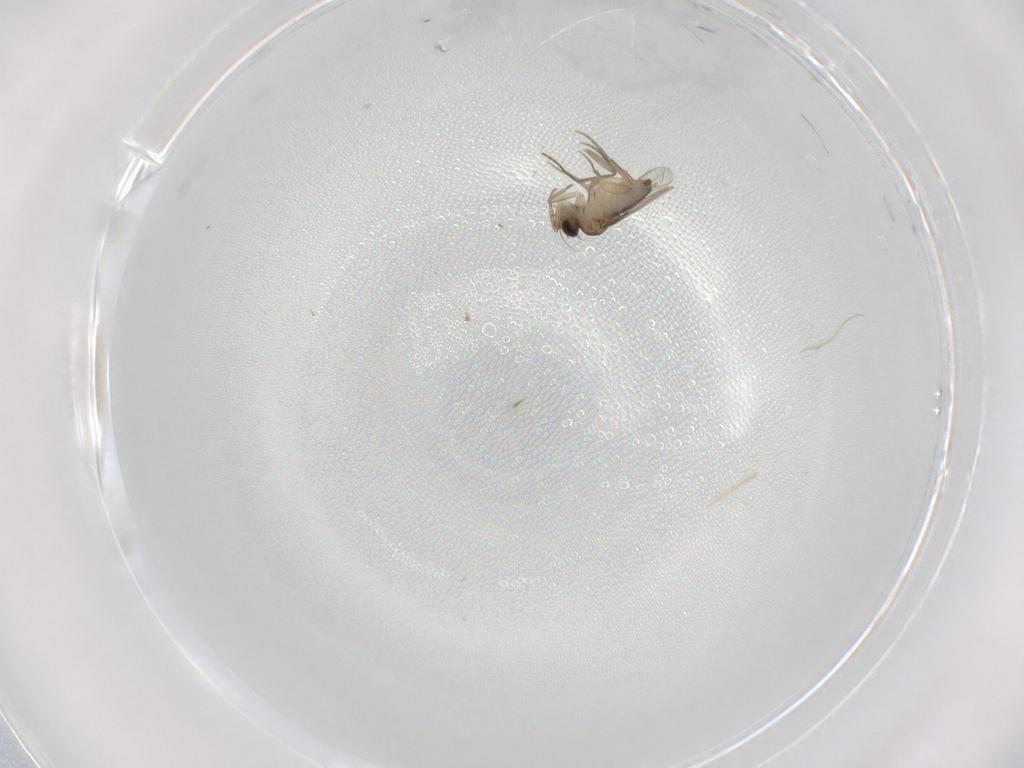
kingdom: Animalia
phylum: Arthropoda
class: Insecta
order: Diptera
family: Phoridae
